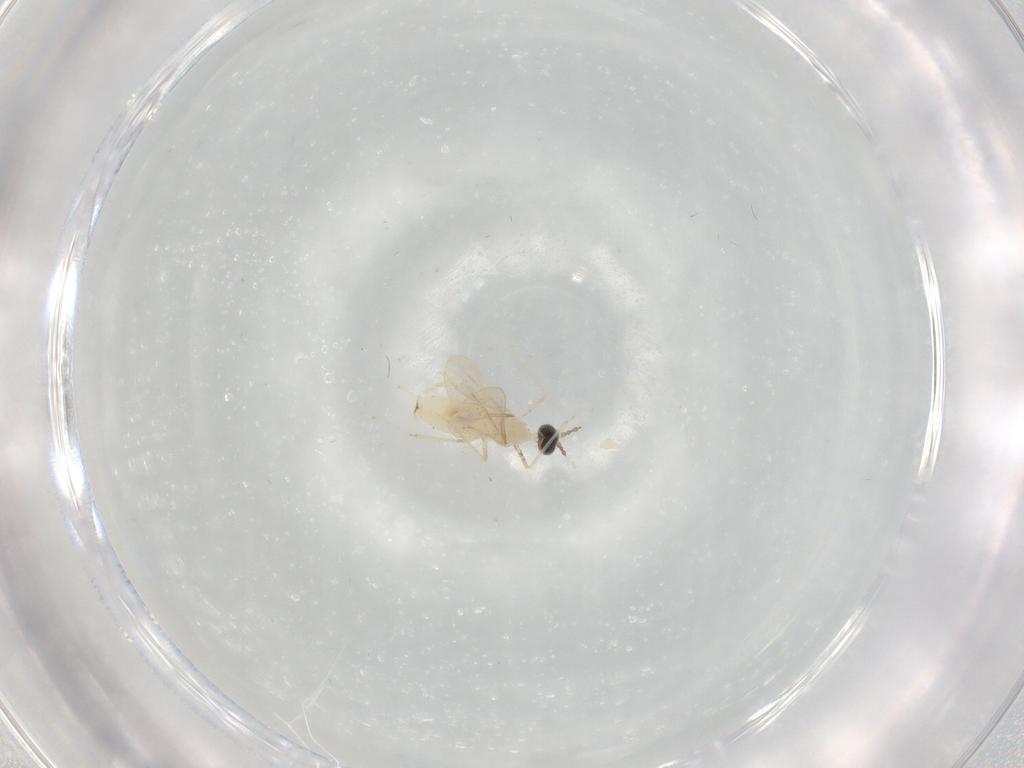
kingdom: Animalia
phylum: Arthropoda
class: Insecta
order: Diptera
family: Cecidomyiidae
